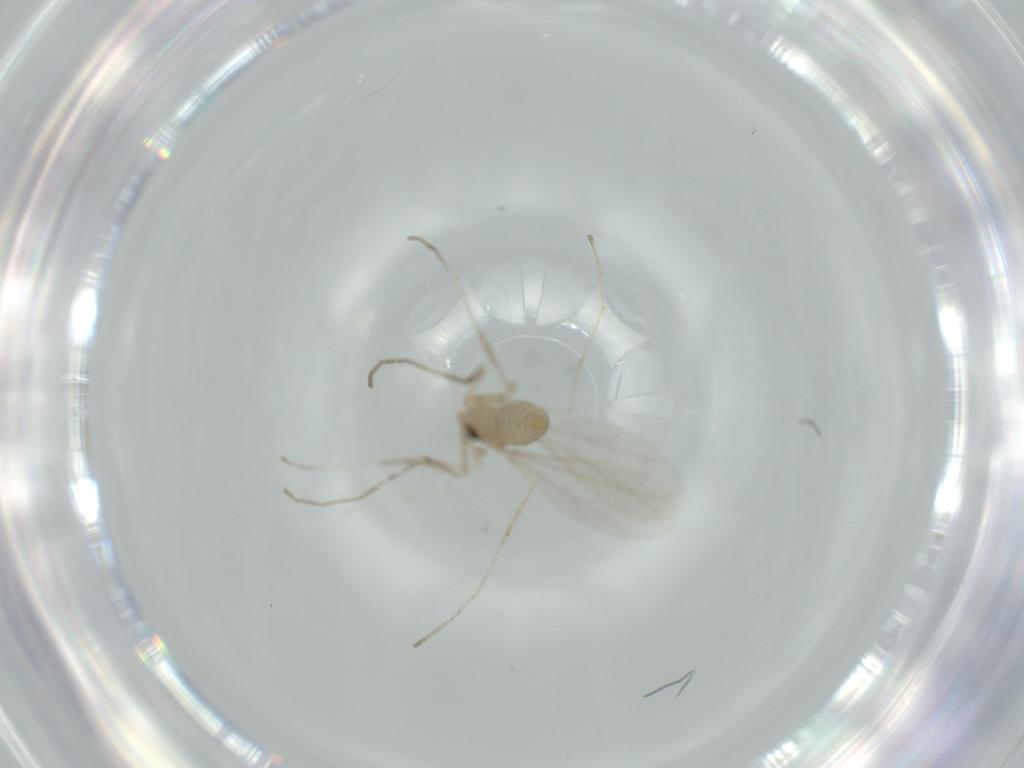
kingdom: Animalia
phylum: Arthropoda
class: Insecta
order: Diptera
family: Cecidomyiidae
